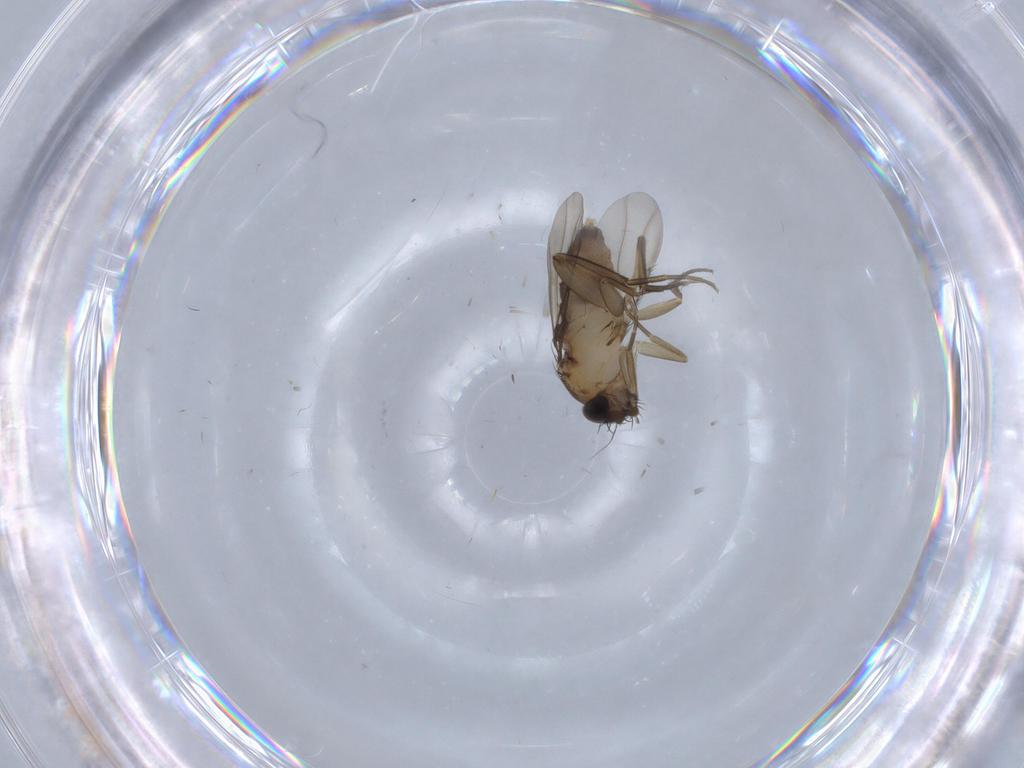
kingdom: Animalia
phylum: Arthropoda
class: Insecta
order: Diptera
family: Phoridae
